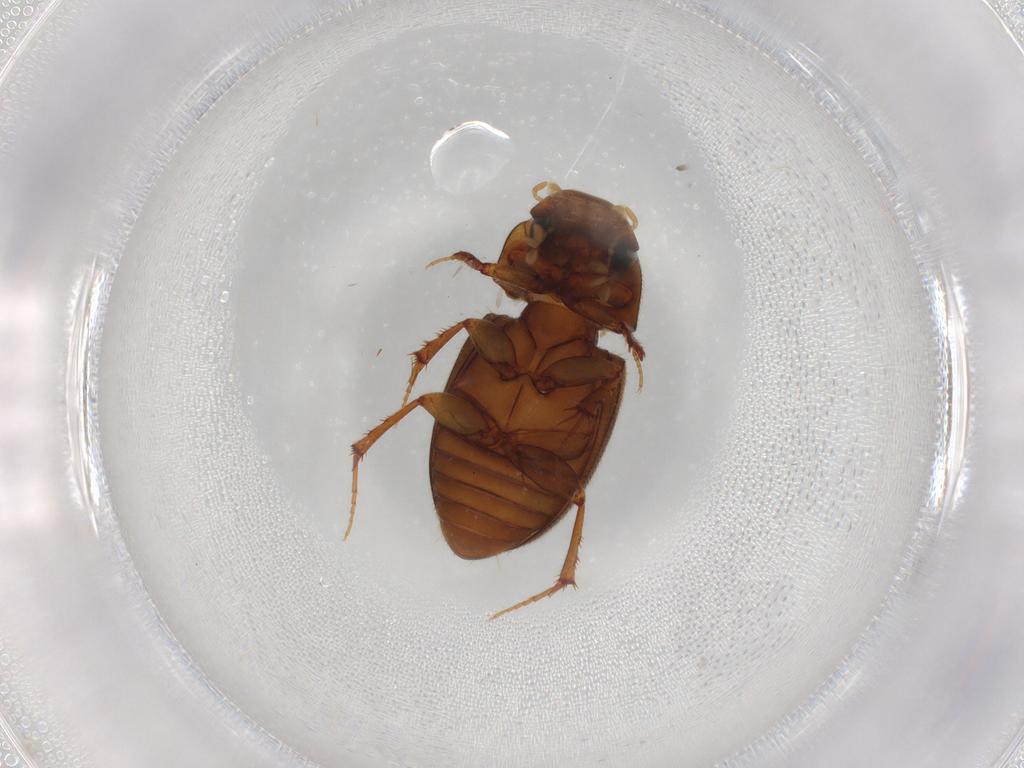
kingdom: Animalia
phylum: Arthropoda
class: Insecta
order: Coleoptera
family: Scarabaeidae
